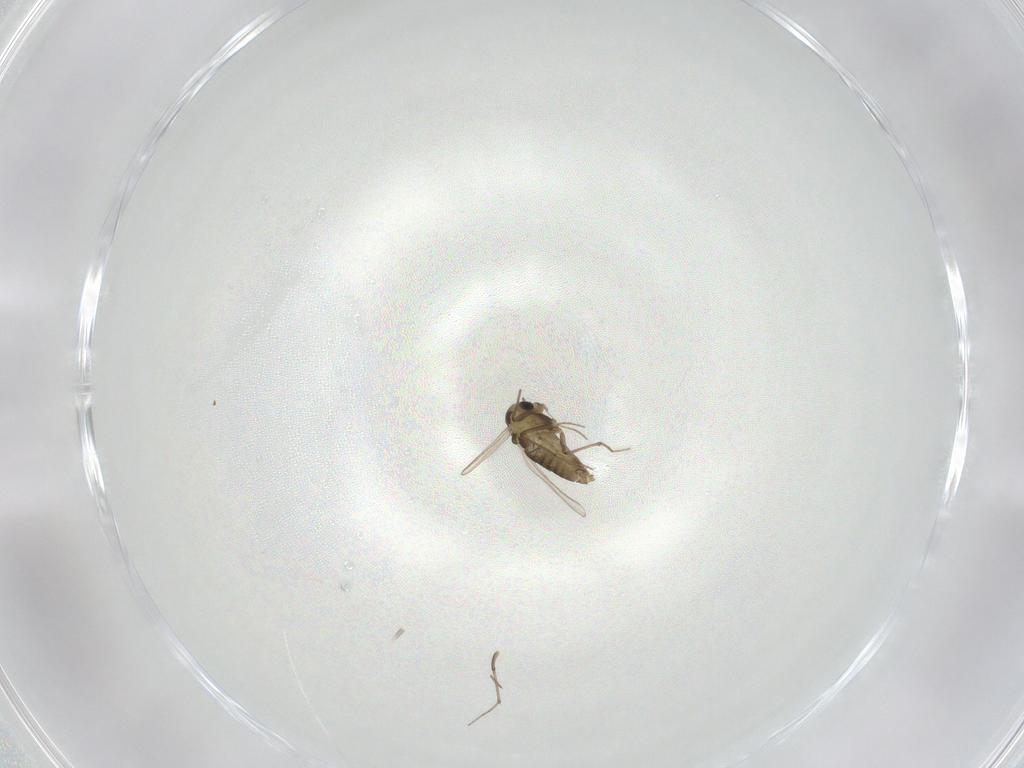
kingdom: Animalia
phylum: Arthropoda
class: Insecta
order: Diptera
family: Chironomidae
